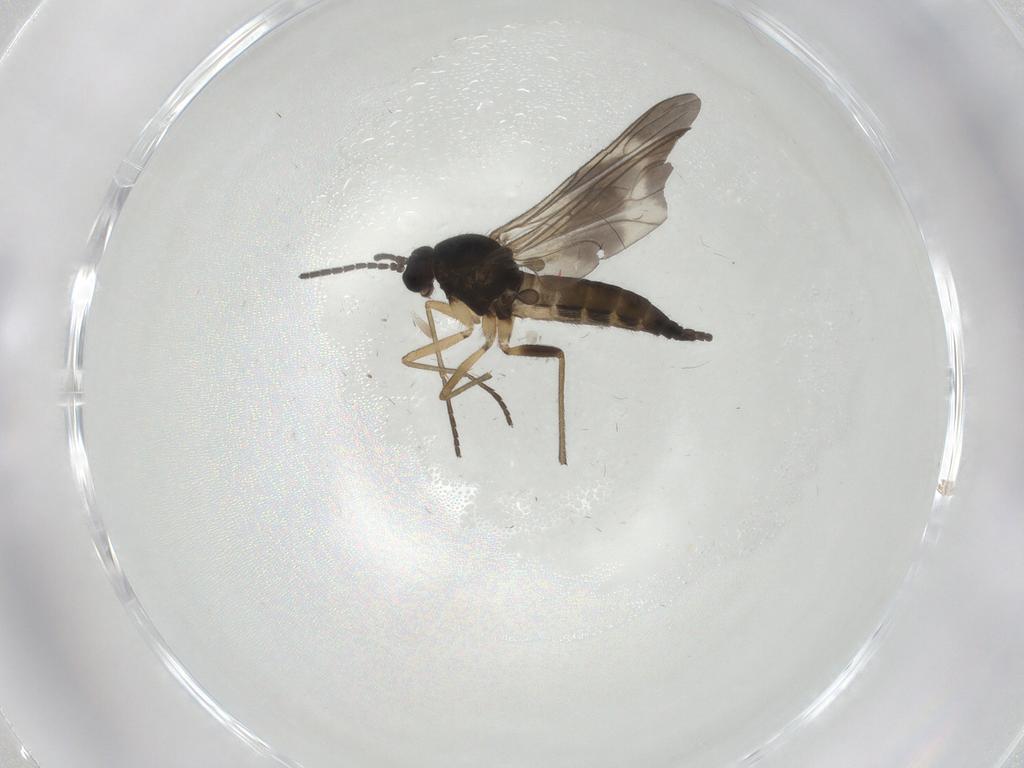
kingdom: Animalia
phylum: Arthropoda
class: Insecta
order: Diptera
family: Sciaridae
